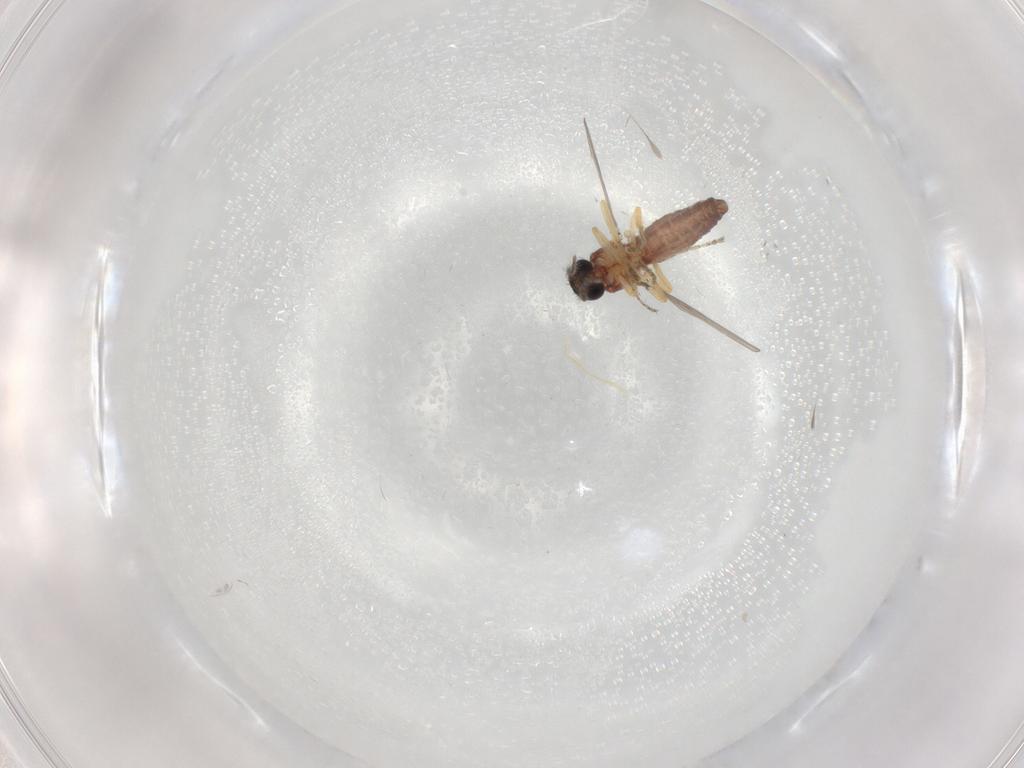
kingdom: Animalia
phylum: Arthropoda
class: Insecta
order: Diptera
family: Ceratopogonidae
